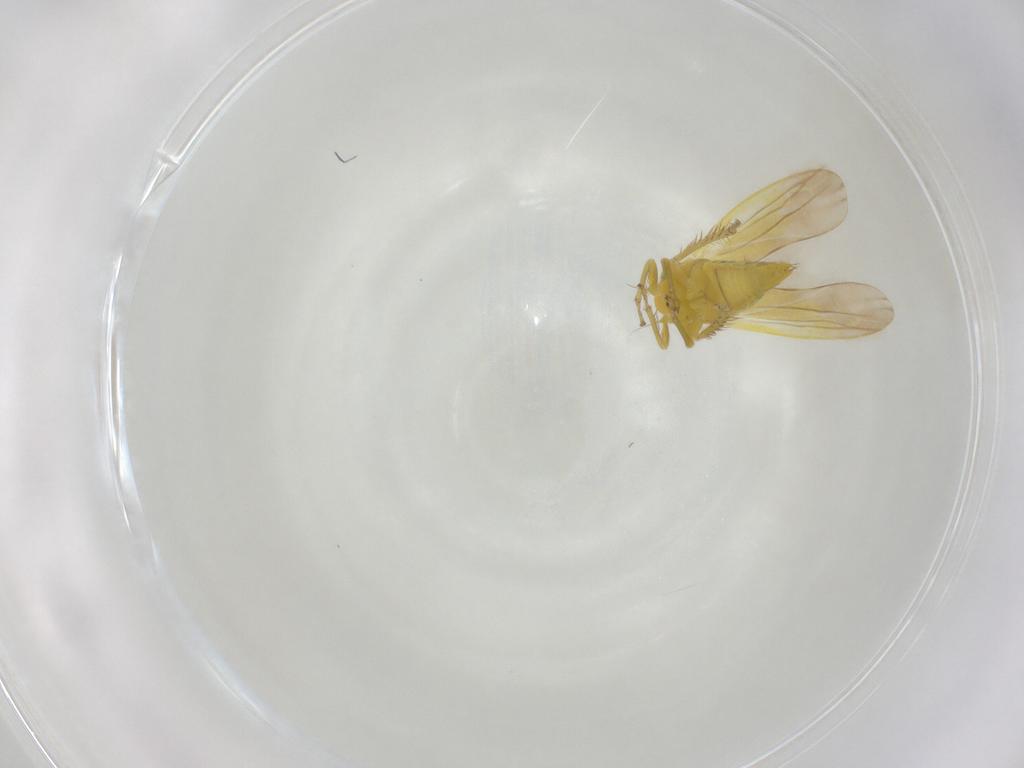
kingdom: Animalia
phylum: Arthropoda
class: Insecta
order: Hemiptera
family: Cicadellidae
